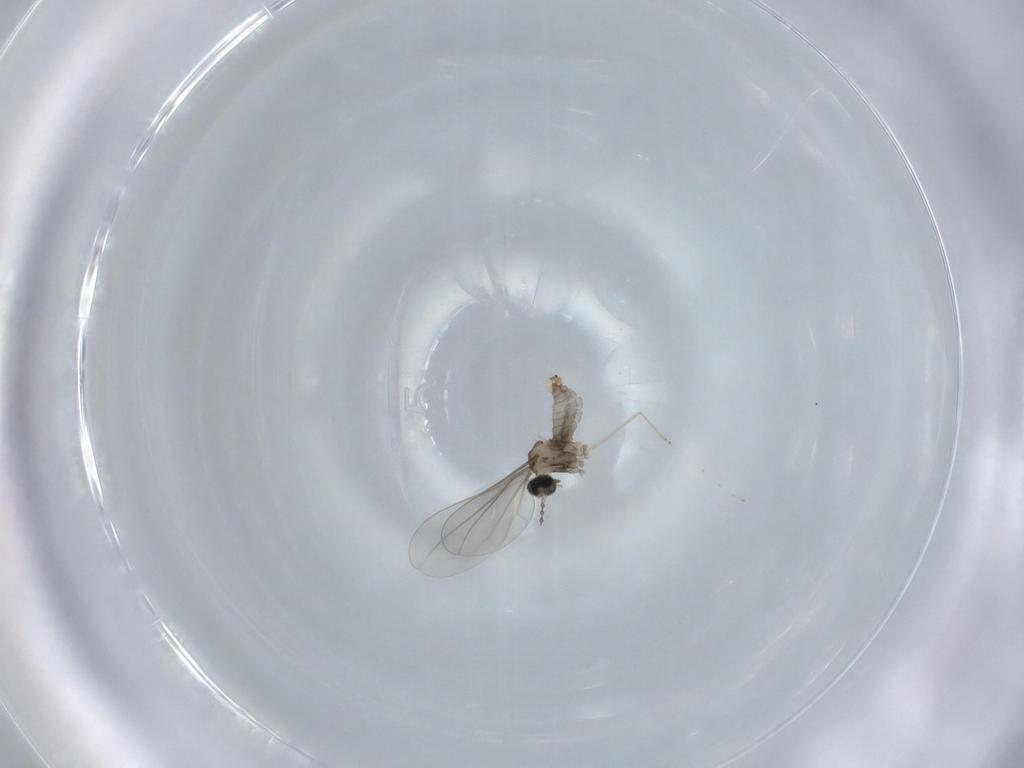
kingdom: Animalia
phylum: Arthropoda
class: Insecta
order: Diptera
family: Cecidomyiidae
